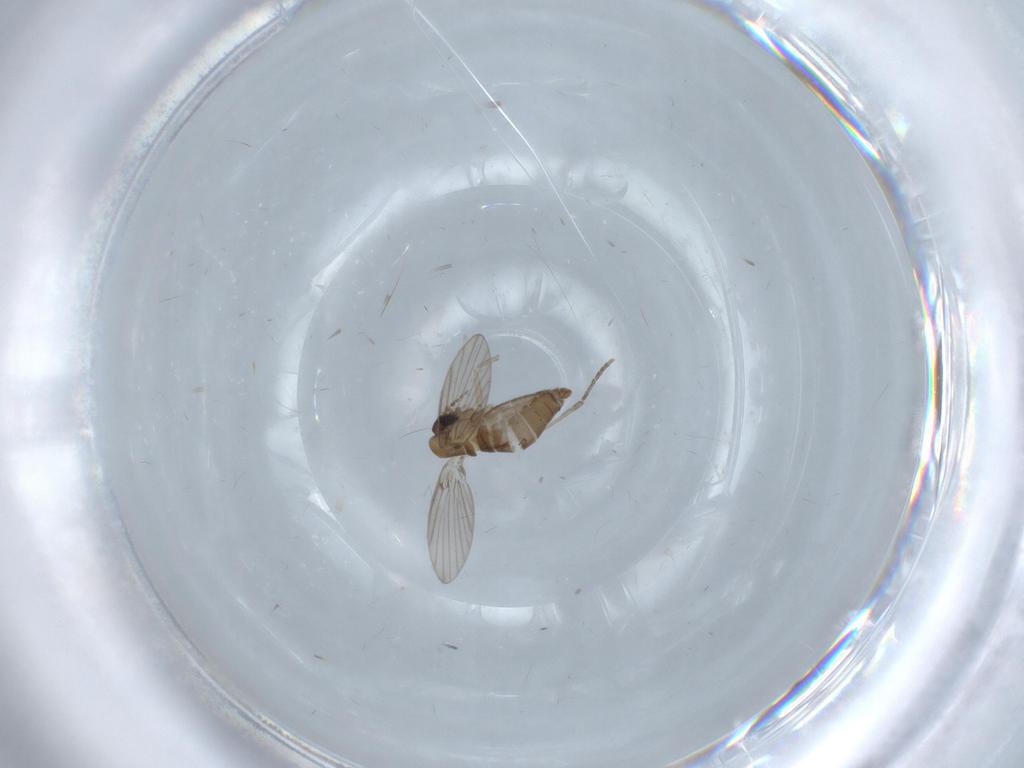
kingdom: Animalia
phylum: Arthropoda
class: Insecta
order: Diptera
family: Psychodidae
